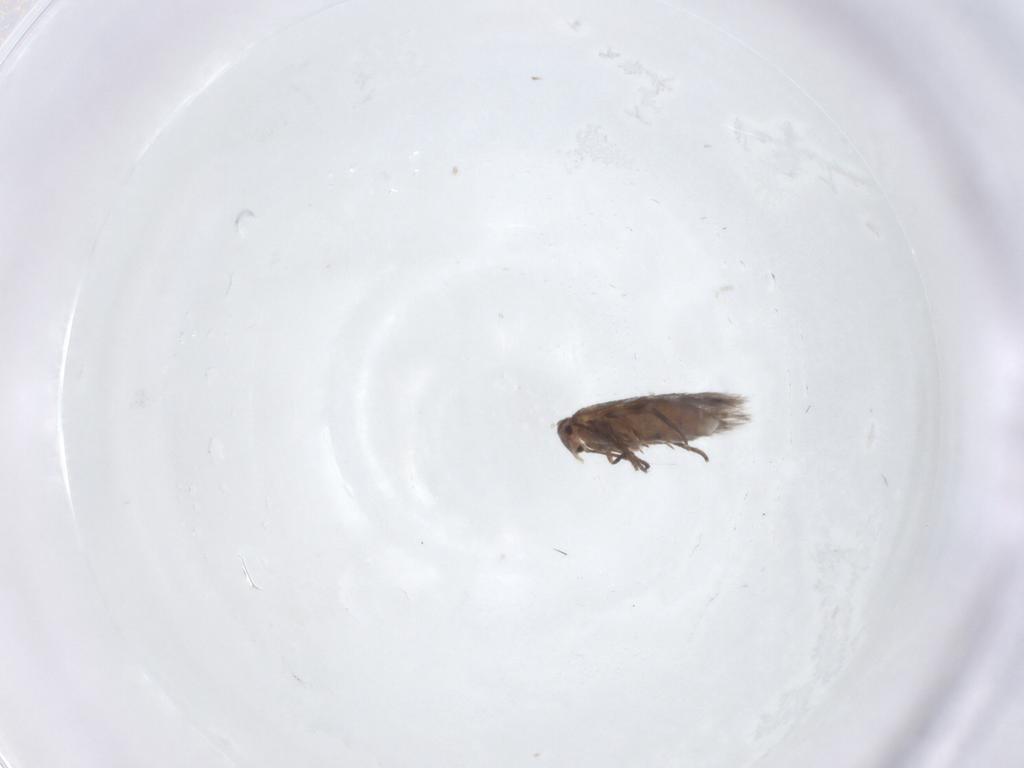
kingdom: Animalia
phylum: Arthropoda
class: Insecta
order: Lepidoptera
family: Lyonetiidae
